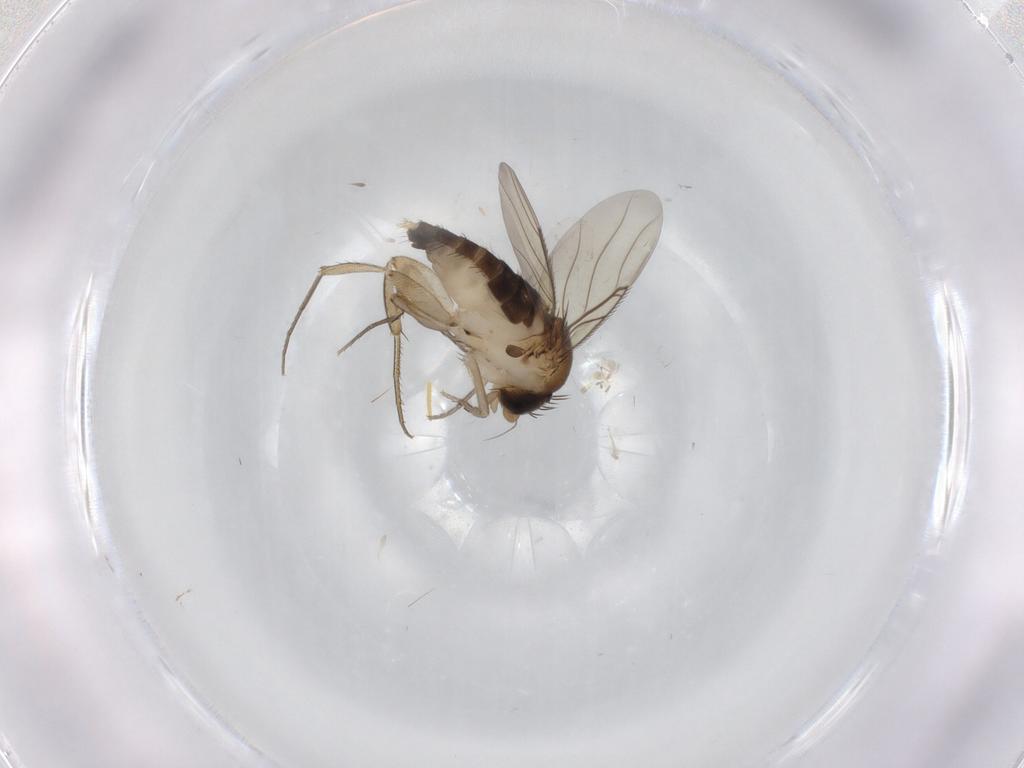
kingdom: Animalia
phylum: Arthropoda
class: Insecta
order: Diptera
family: Phoridae
